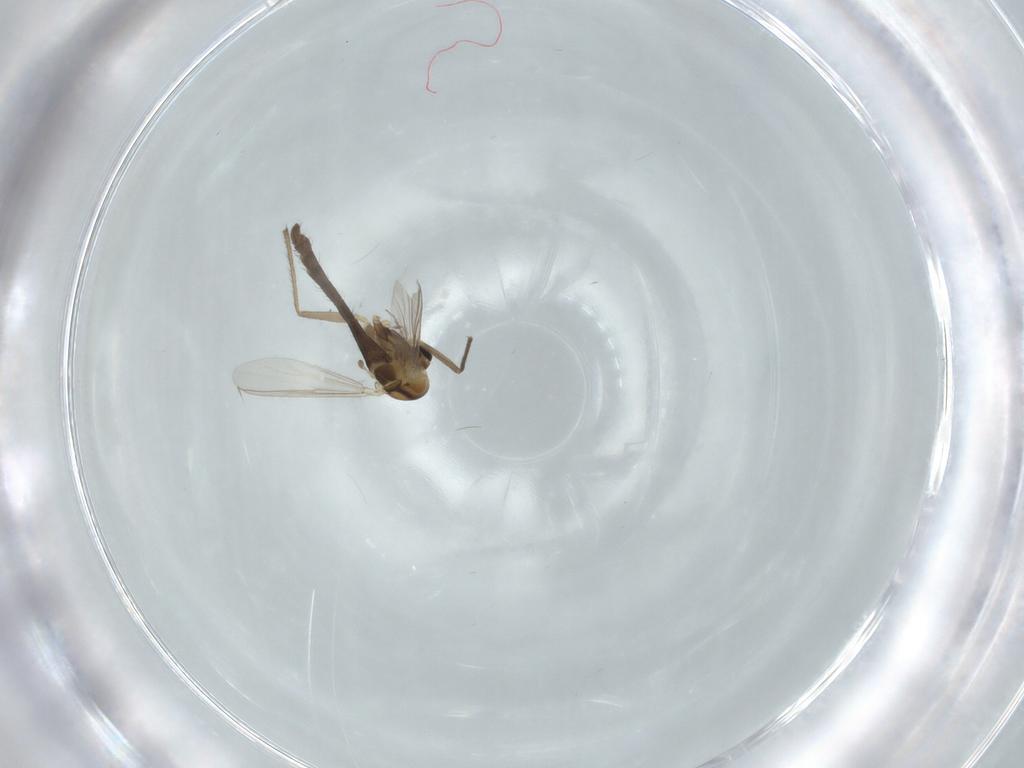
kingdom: Animalia
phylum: Arthropoda
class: Insecta
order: Diptera
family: Chironomidae
